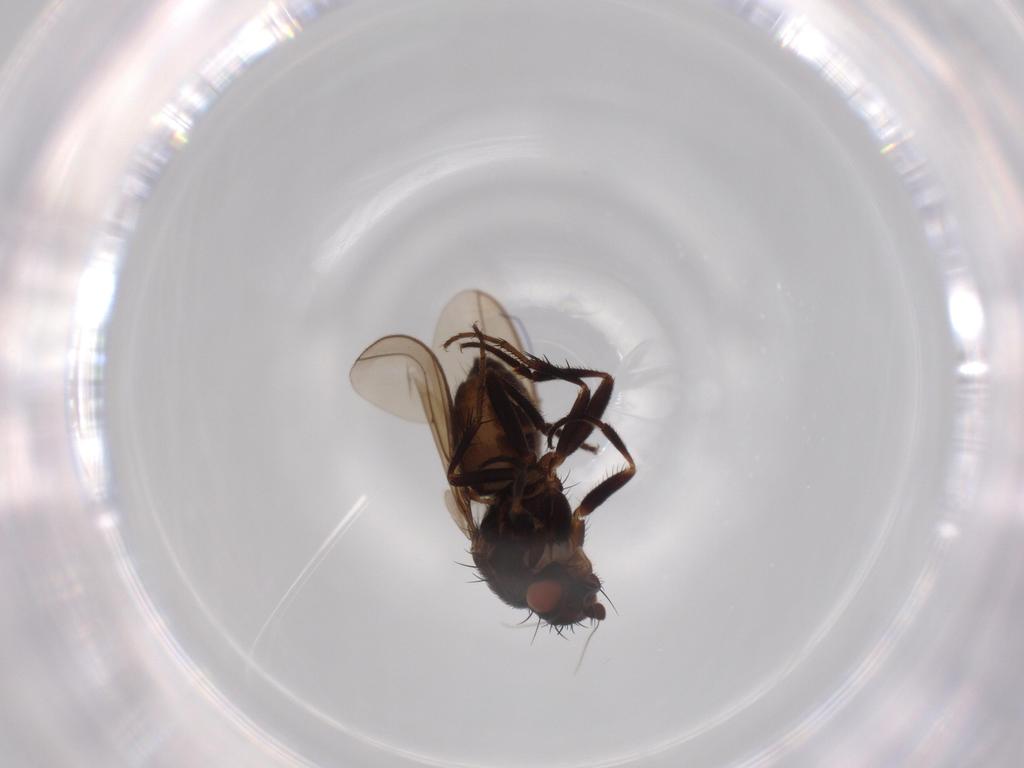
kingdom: Animalia
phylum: Arthropoda
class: Insecta
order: Diptera
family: Sphaeroceridae
